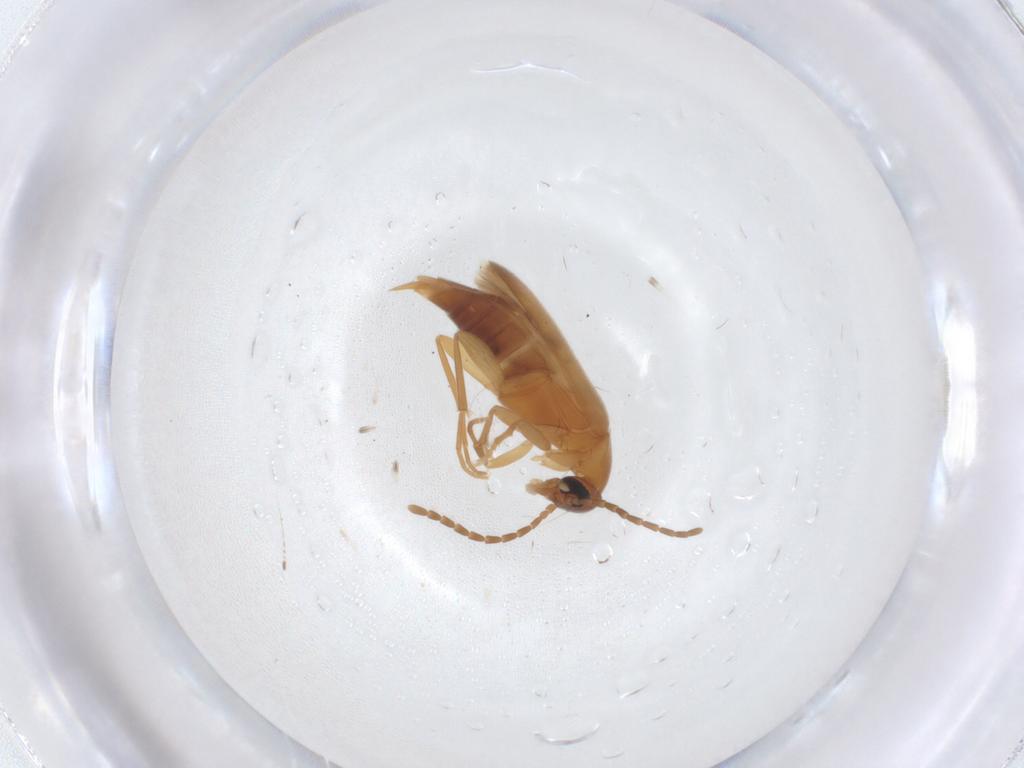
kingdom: Animalia
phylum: Arthropoda
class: Insecta
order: Coleoptera
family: Scraptiidae
